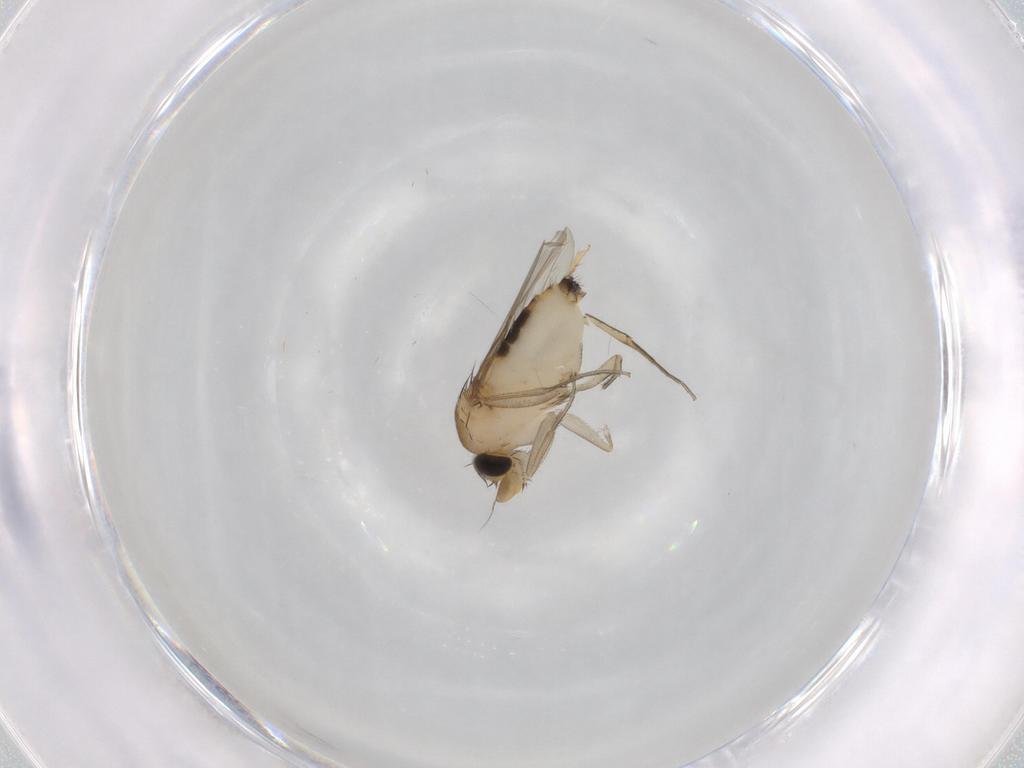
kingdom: Animalia
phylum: Arthropoda
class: Insecta
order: Diptera
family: Phoridae
